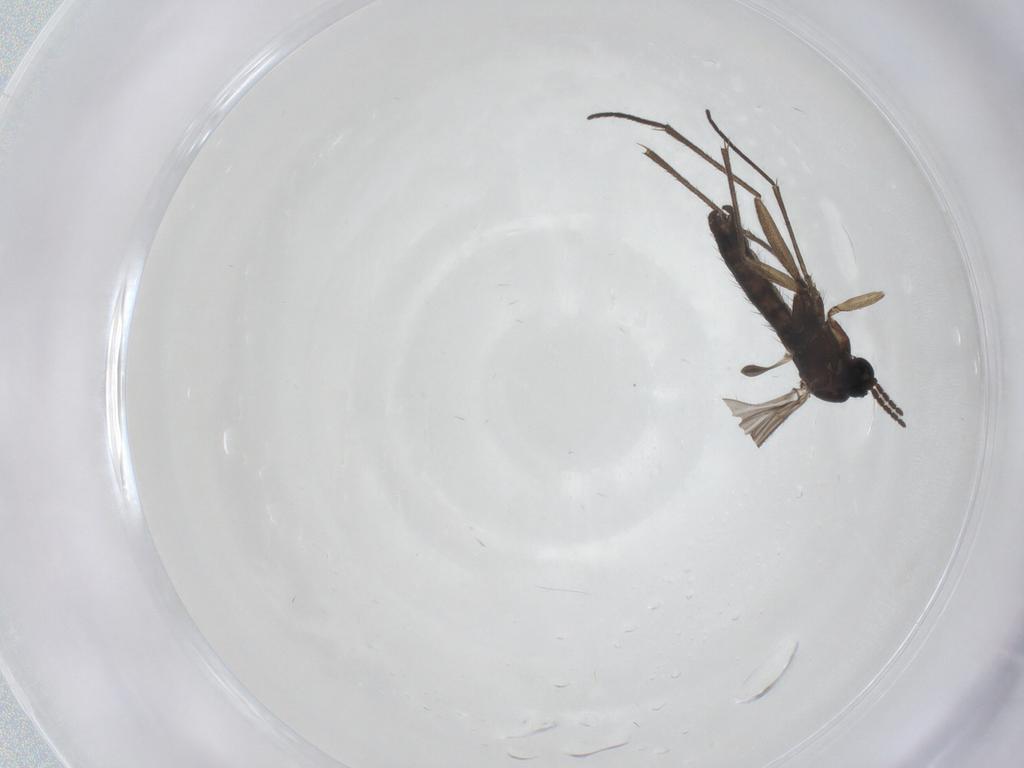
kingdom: Animalia
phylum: Arthropoda
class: Insecta
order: Diptera
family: Sciaridae
